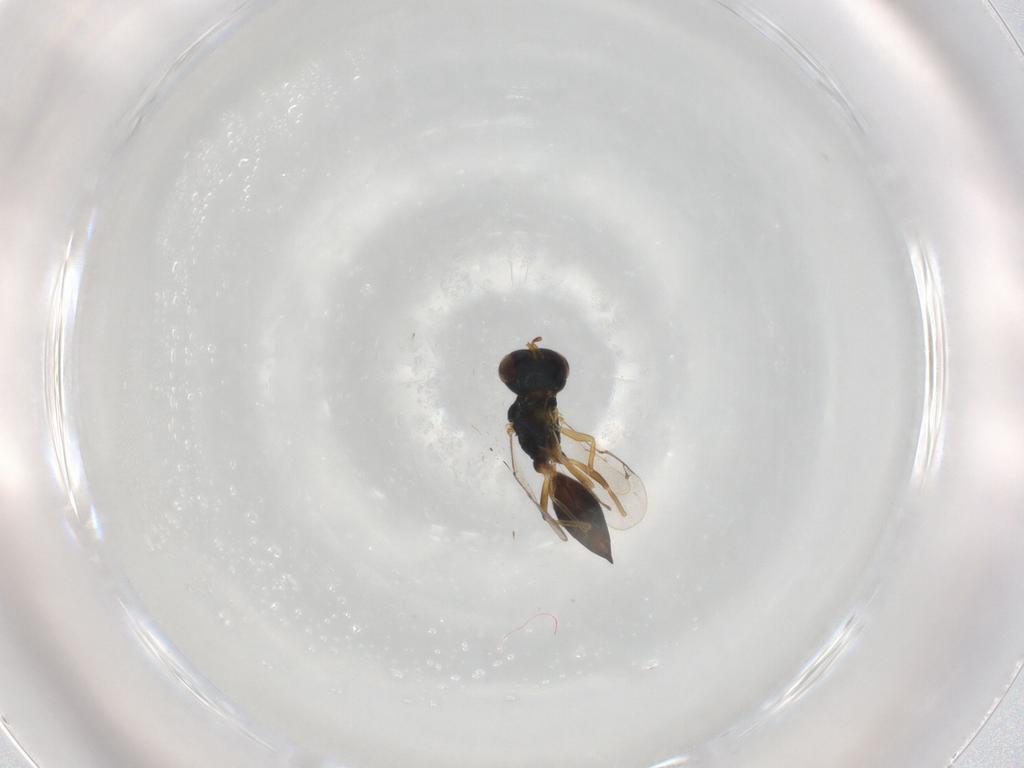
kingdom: Animalia
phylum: Arthropoda
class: Insecta
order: Hymenoptera
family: Pteromalidae
